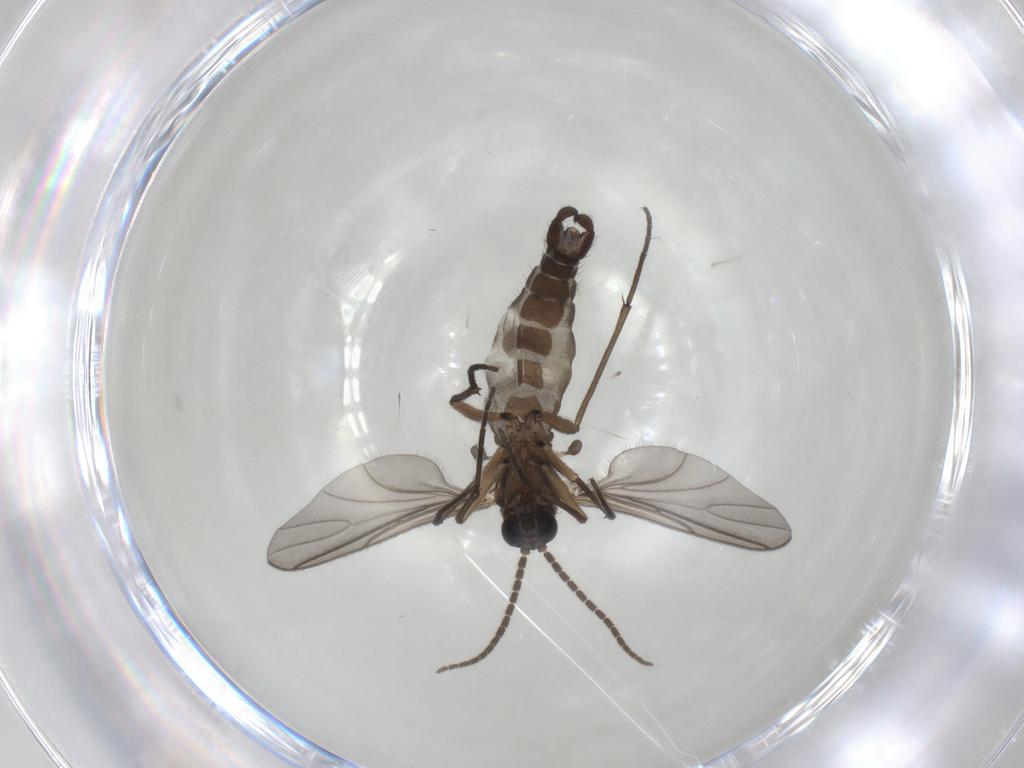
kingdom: Animalia
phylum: Arthropoda
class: Insecta
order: Diptera
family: Sciaridae
